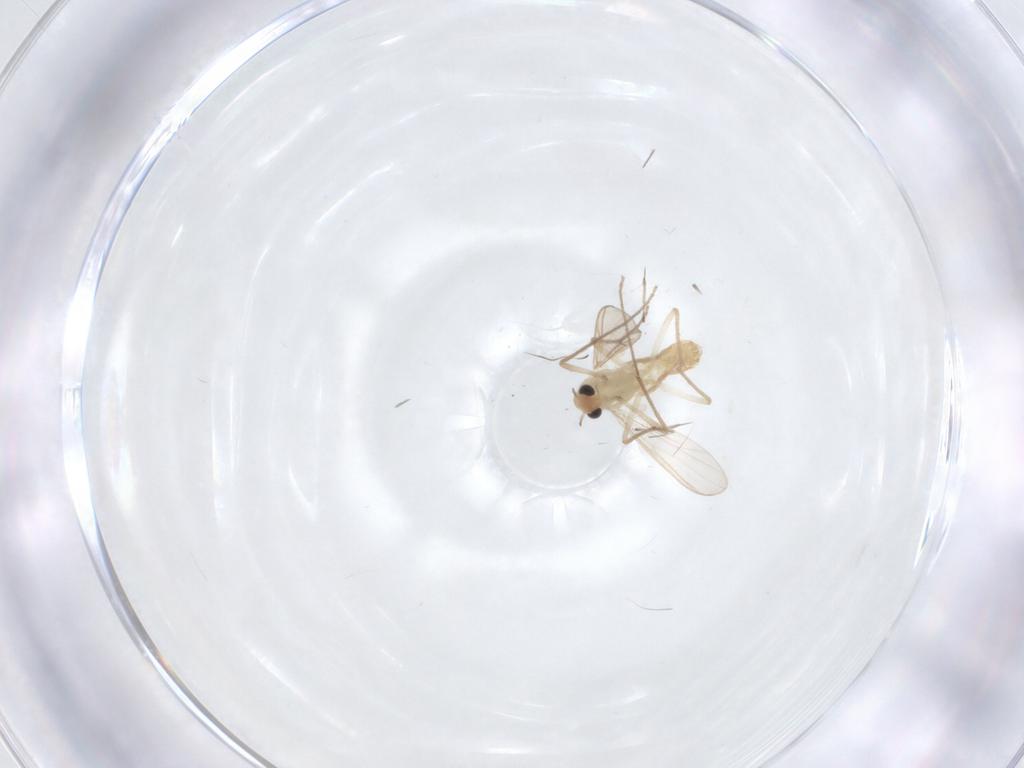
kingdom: Animalia
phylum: Arthropoda
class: Insecta
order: Diptera
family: Chironomidae
